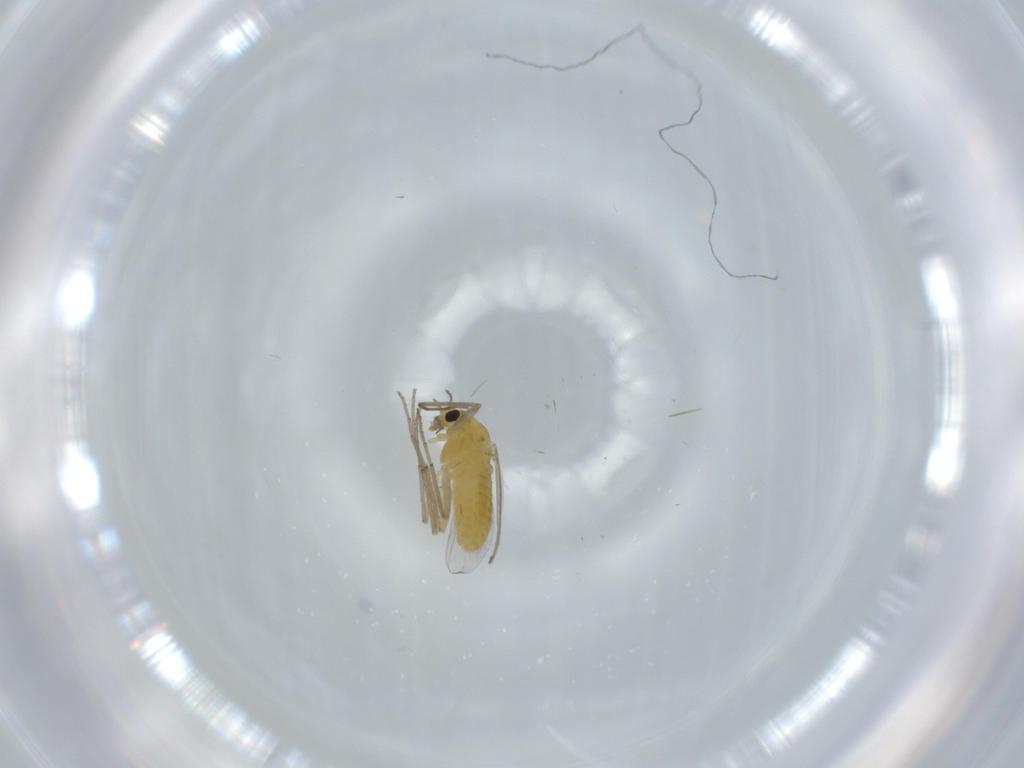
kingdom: Animalia
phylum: Arthropoda
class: Insecta
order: Diptera
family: Chironomidae
